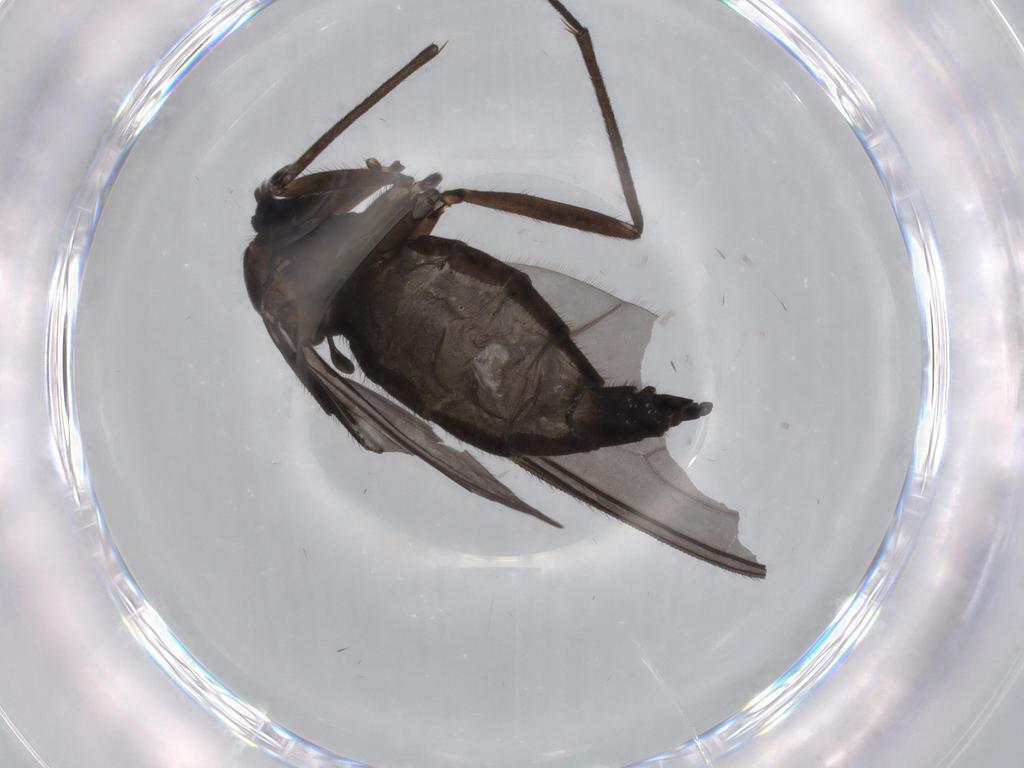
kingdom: Animalia
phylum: Arthropoda
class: Insecta
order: Diptera
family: Sciaridae
